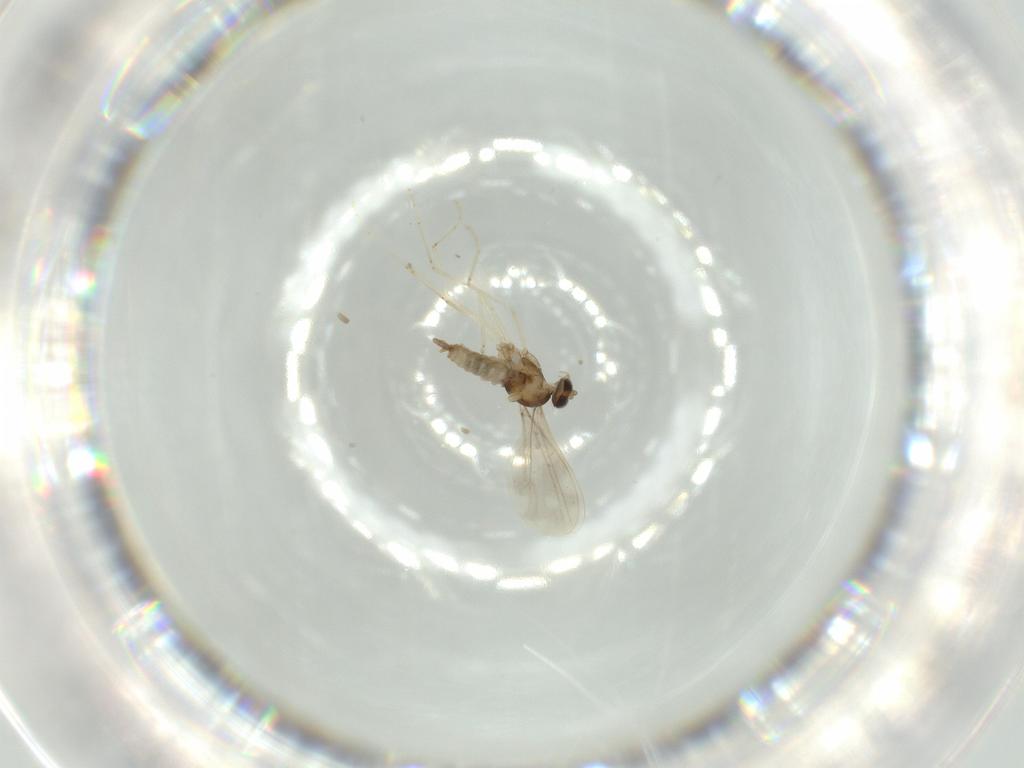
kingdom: Animalia
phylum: Arthropoda
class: Insecta
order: Diptera
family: Cecidomyiidae
